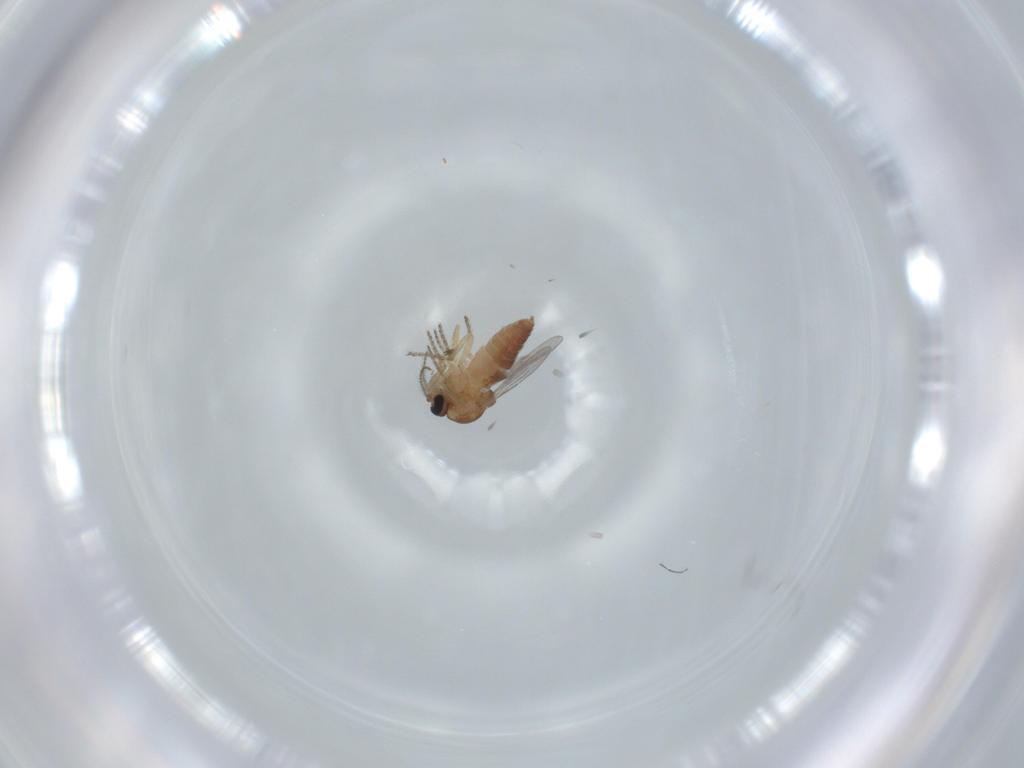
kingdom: Animalia
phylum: Arthropoda
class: Insecta
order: Diptera
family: Ceratopogonidae
